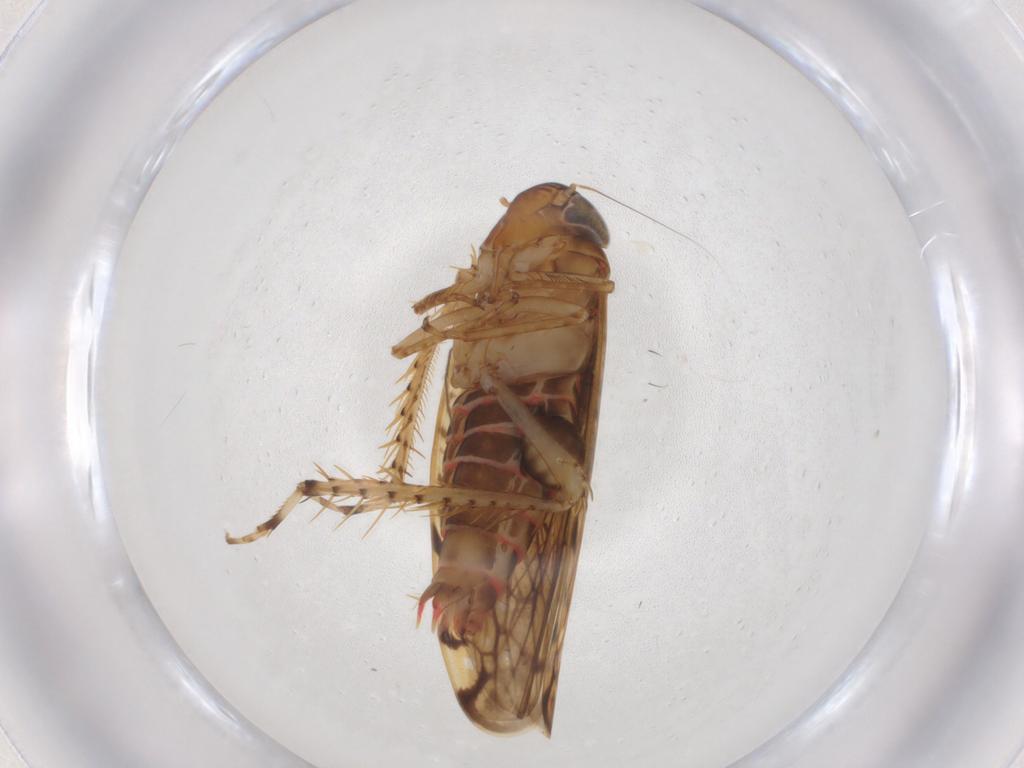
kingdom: Animalia
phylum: Arthropoda
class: Insecta
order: Hemiptera
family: Cicadellidae
